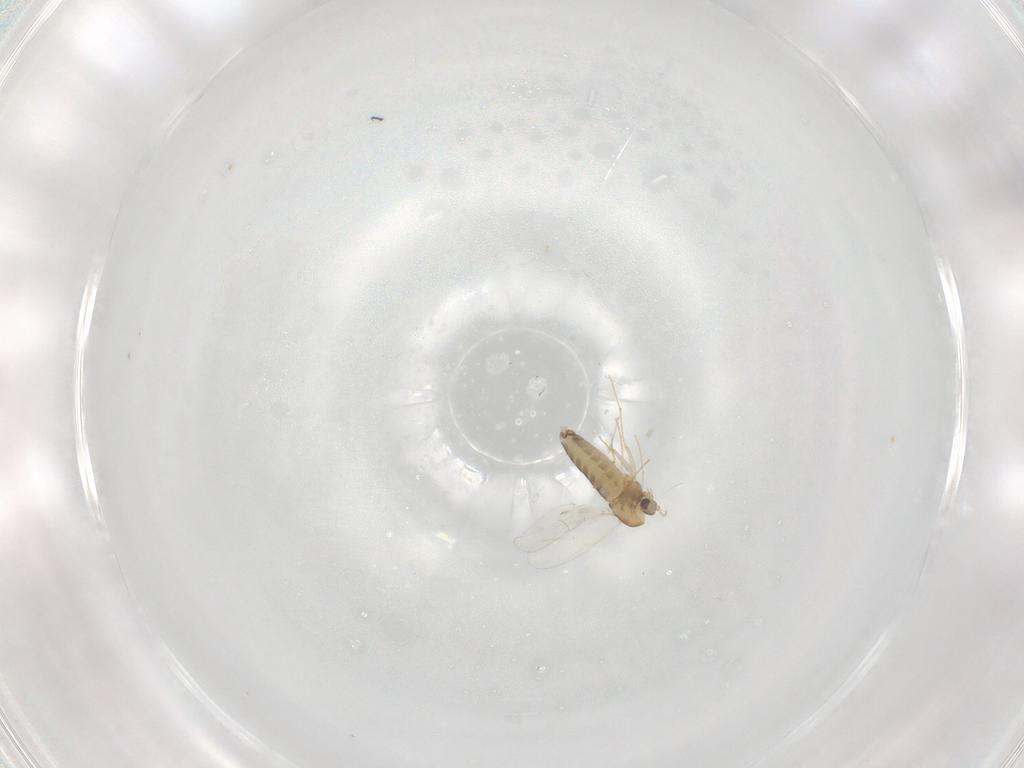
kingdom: Animalia
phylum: Arthropoda
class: Insecta
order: Diptera
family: Chironomidae
